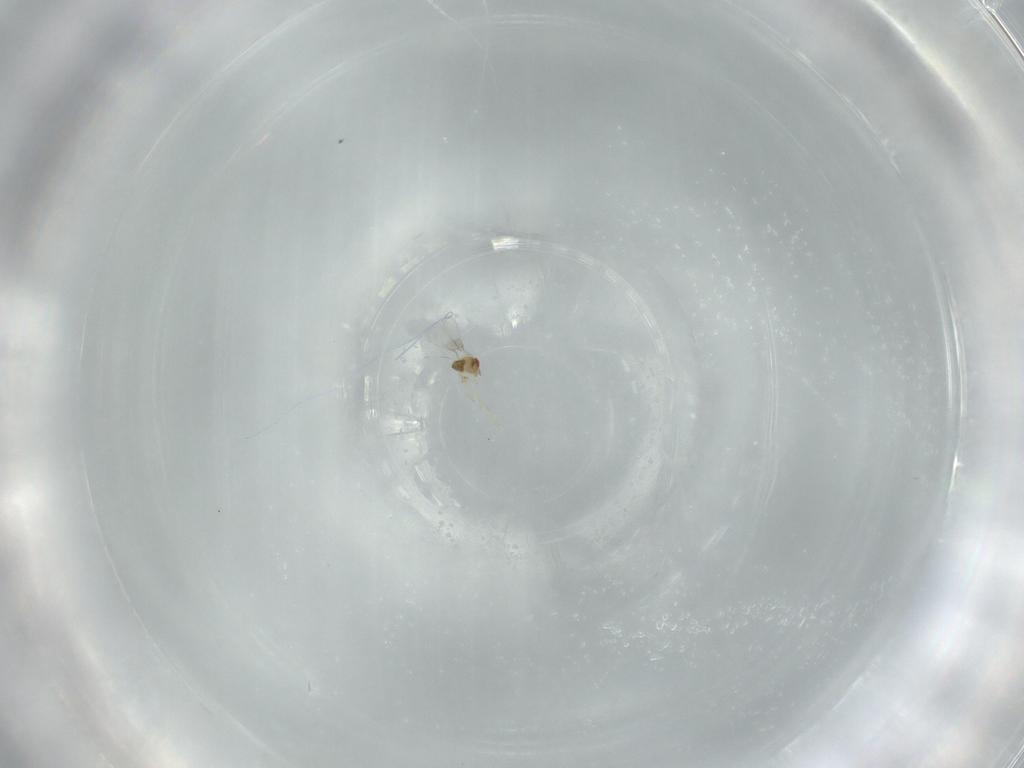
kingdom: Animalia
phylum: Arthropoda
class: Insecta
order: Hymenoptera
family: Trichogrammatidae
